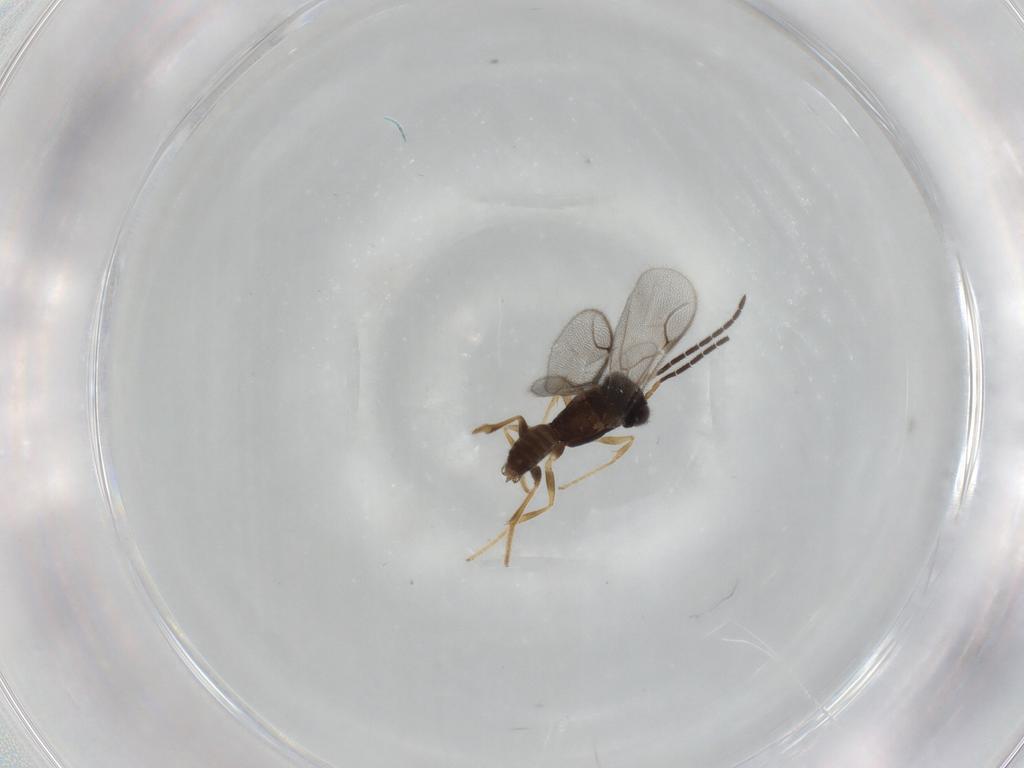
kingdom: Animalia
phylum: Arthropoda
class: Insecta
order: Hymenoptera
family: Dryinidae
